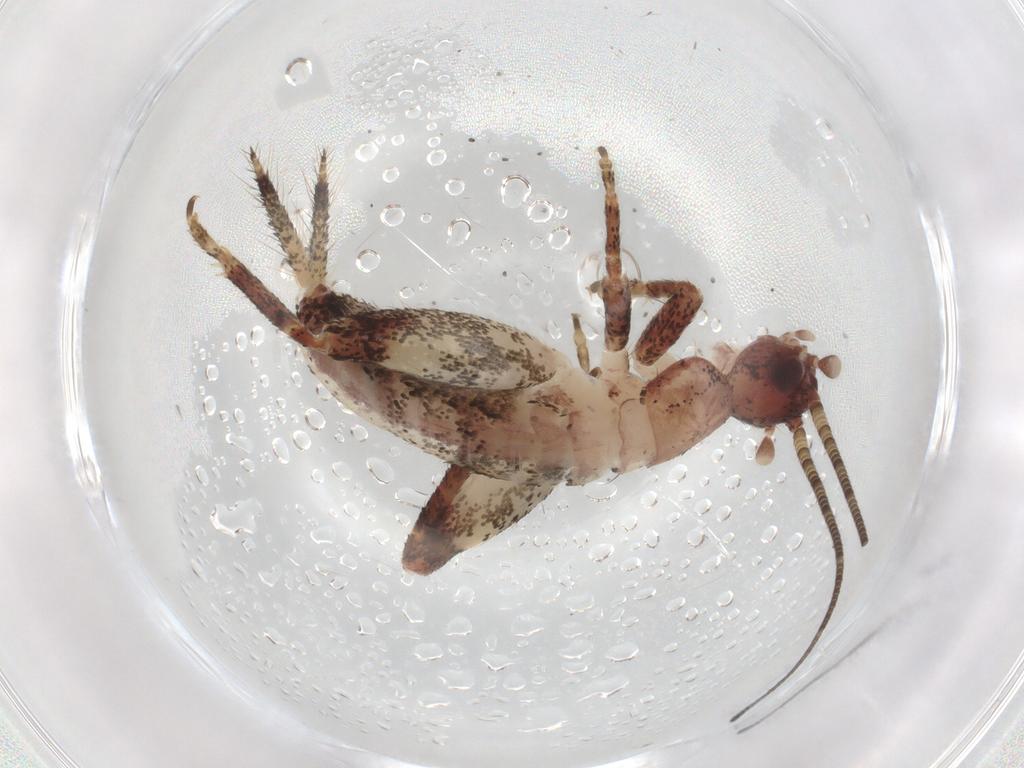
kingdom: Animalia
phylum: Arthropoda
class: Insecta
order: Orthoptera
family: Mogoplistidae
